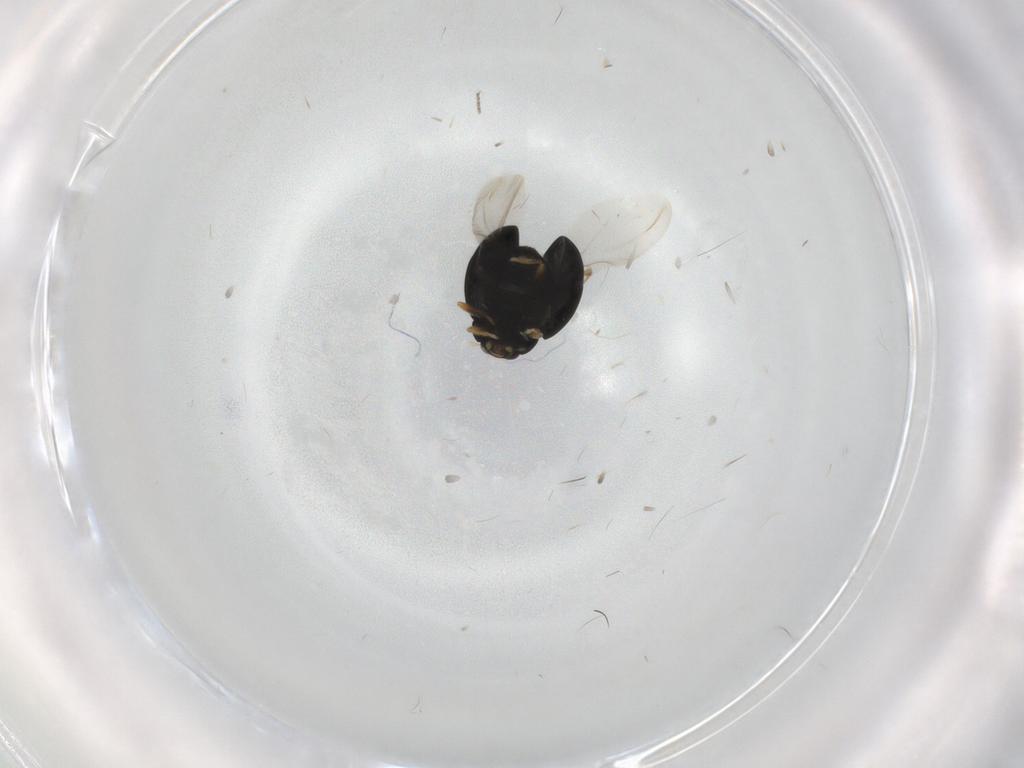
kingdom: Animalia
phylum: Arthropoda
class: Insecta
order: Coleoptera
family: Coccinellidae
